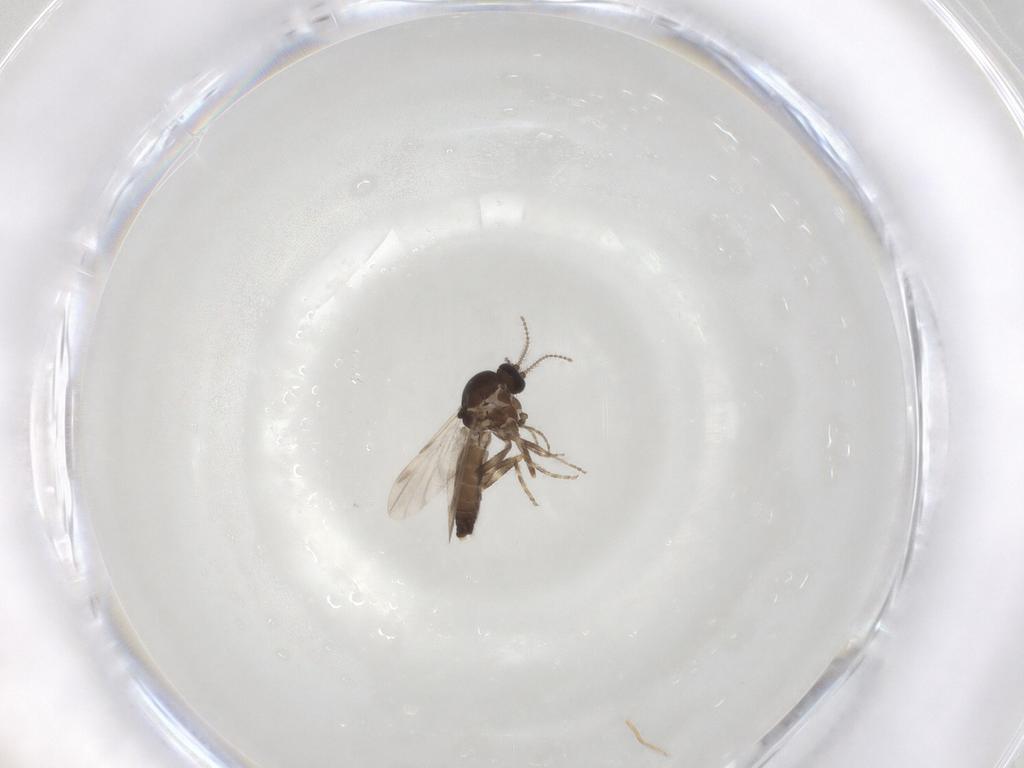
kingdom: Animalia
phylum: Arthropoda
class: Insecta
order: Diptera
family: Ceratopogonidae
